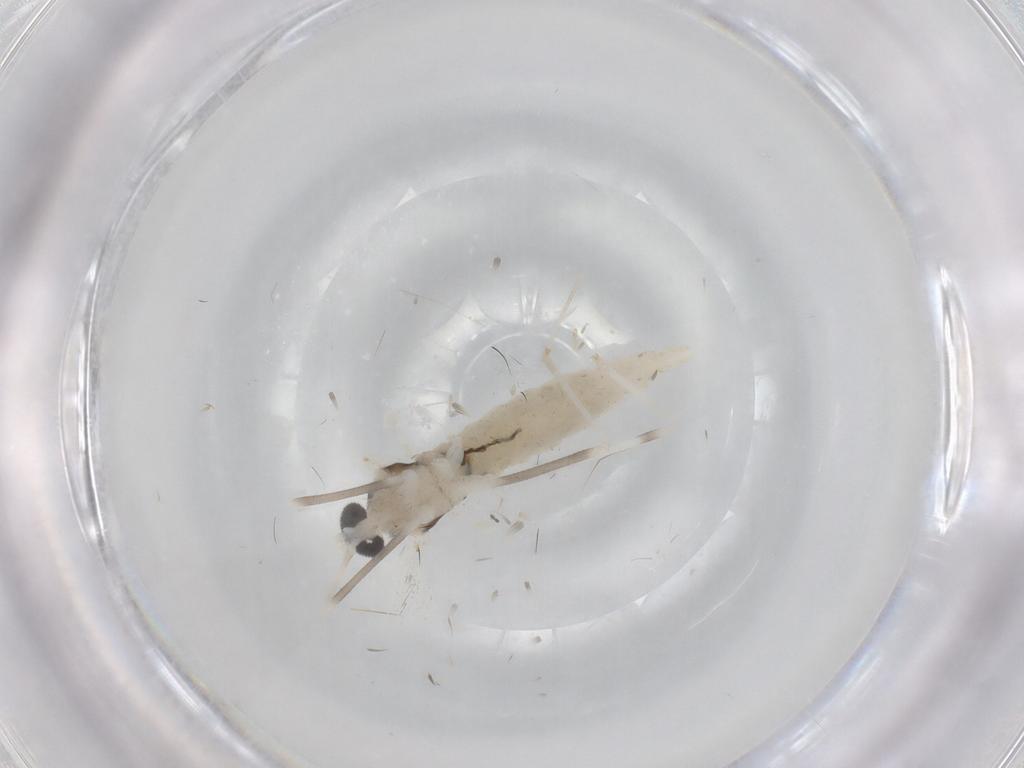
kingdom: Animalia
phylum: Arthropoda
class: Insecta
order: Diptera
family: Cecidomyiidae
